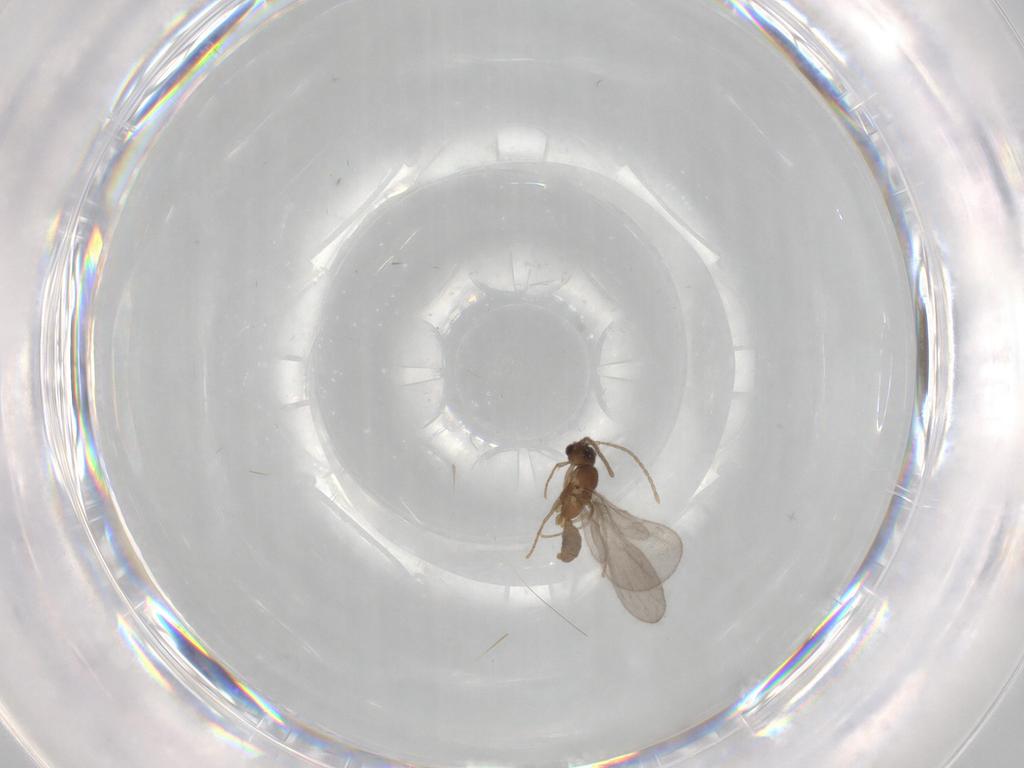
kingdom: Animalia
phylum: Arthropoda
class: Insecta
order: Hymenoptera
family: Formicidae
